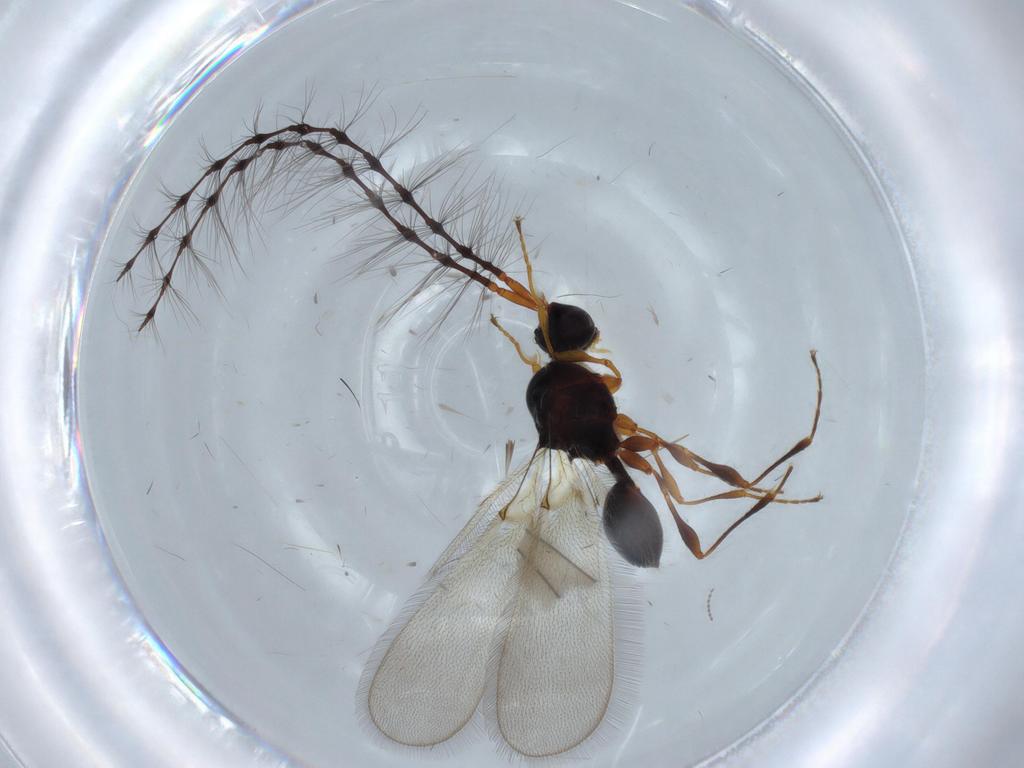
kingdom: Animalia
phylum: Arthropoda
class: Insecta
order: Hymenoptera
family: Diapriidae
